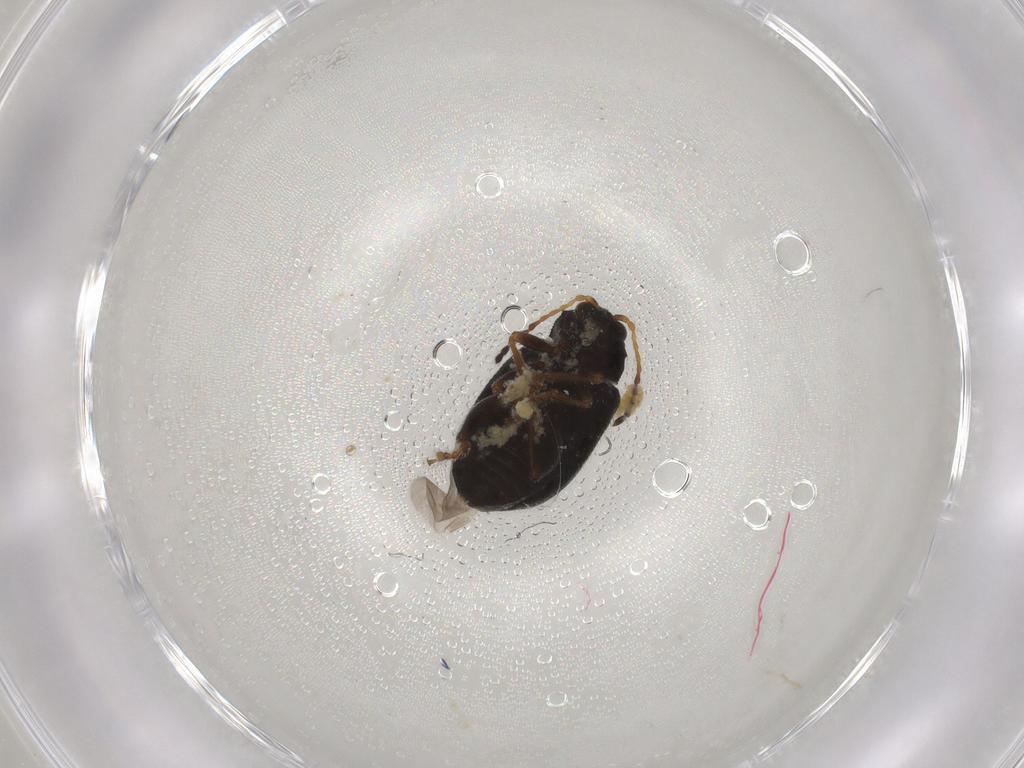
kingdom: Animalia
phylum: Arthropoda
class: Insecta
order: Coleoptera
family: Chrysomelidae
